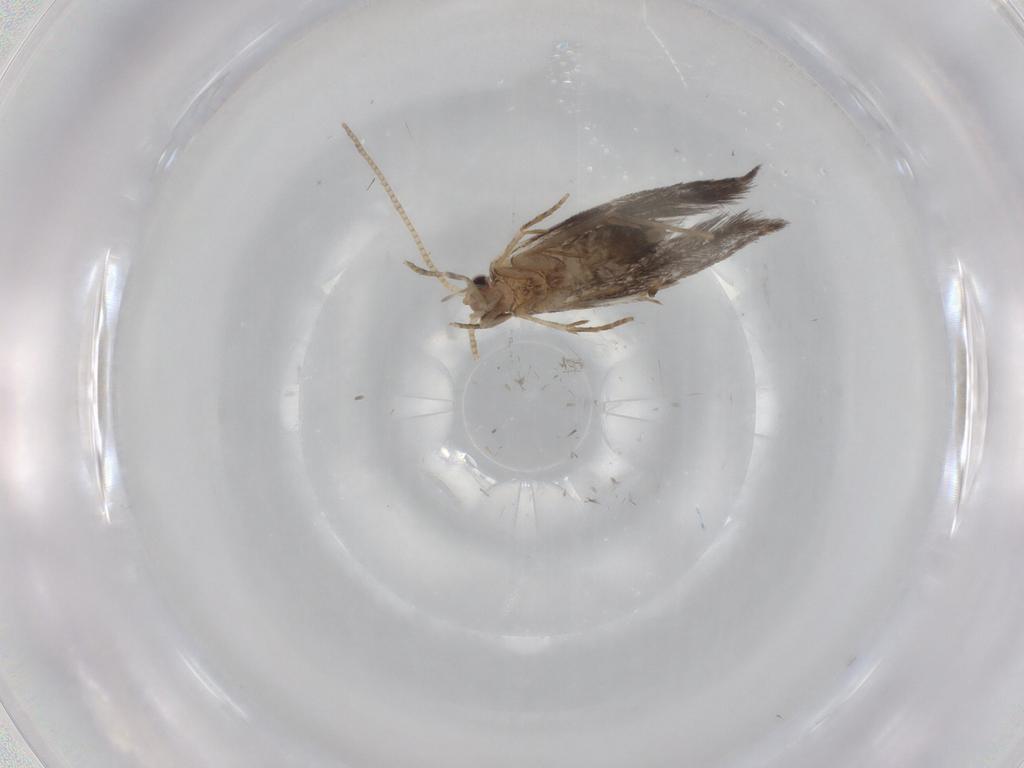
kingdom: Animalia
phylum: Arthropoda
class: Insecta
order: Lepidoptera
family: Tineidae
